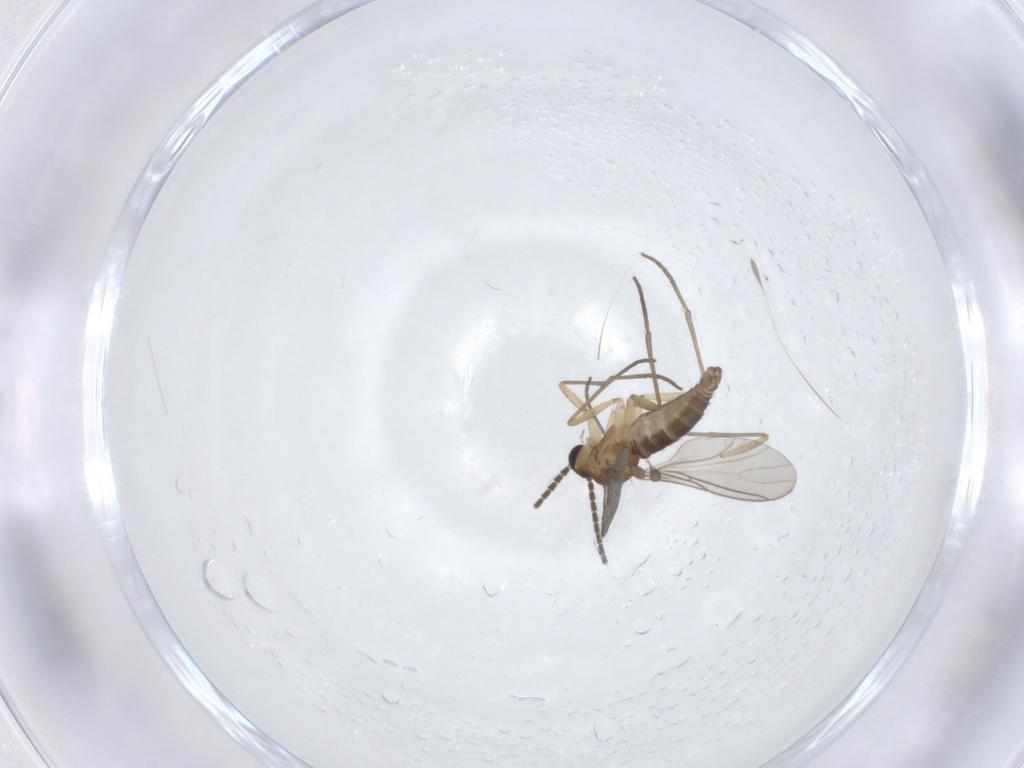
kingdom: Animalia
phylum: Arthropoda
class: Insecta
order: Diptera
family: Sciaridae
